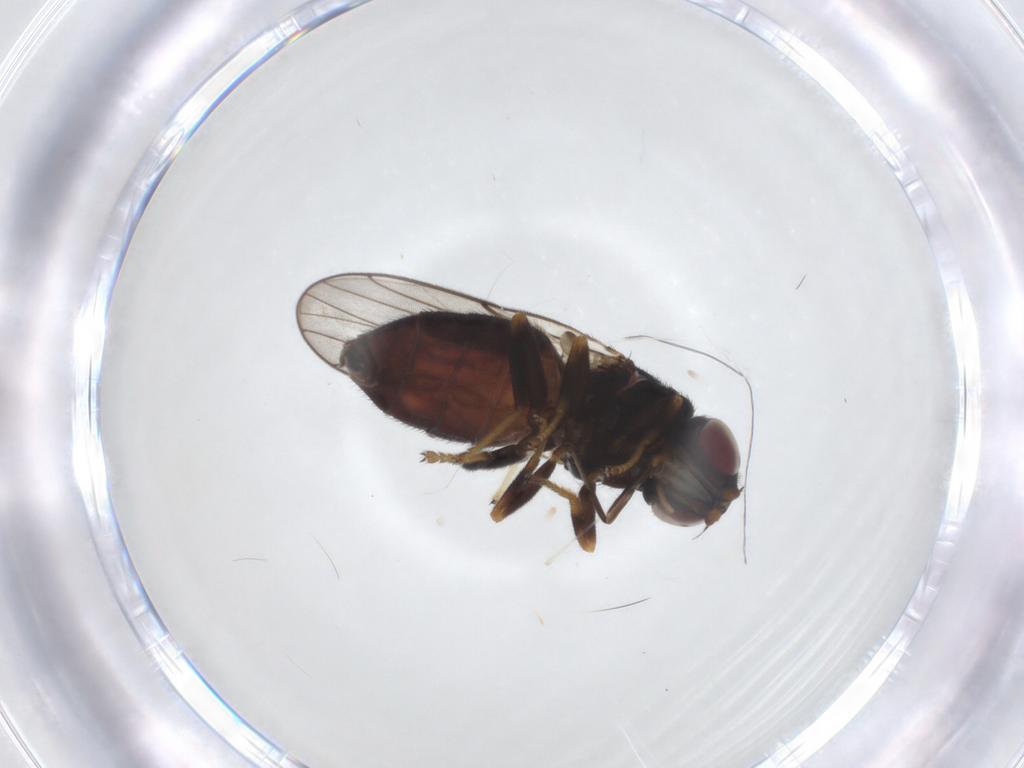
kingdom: Animalia
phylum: Arthropoda
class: Insecta
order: Diptera
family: Chloropidae
